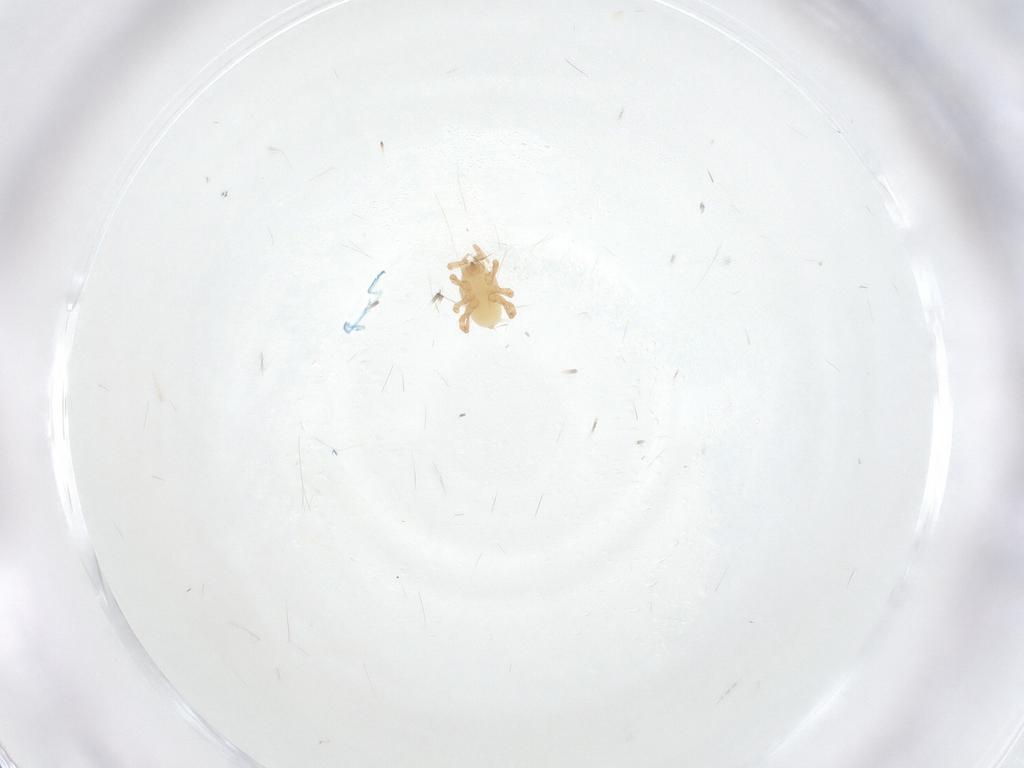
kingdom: Animalia
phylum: Arthropoda
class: Arachnida
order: Mesostigmata
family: Parasitidae
